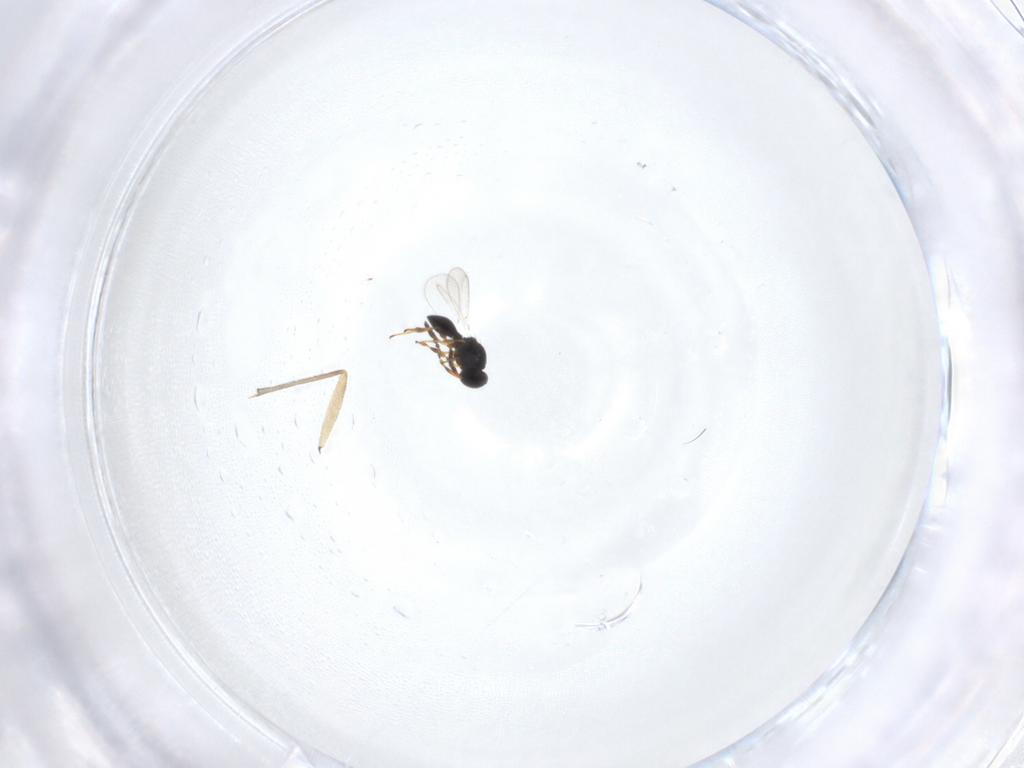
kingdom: Animalia
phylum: Arthropoda
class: Insecta
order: Hymenoptera
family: Platygastridae
